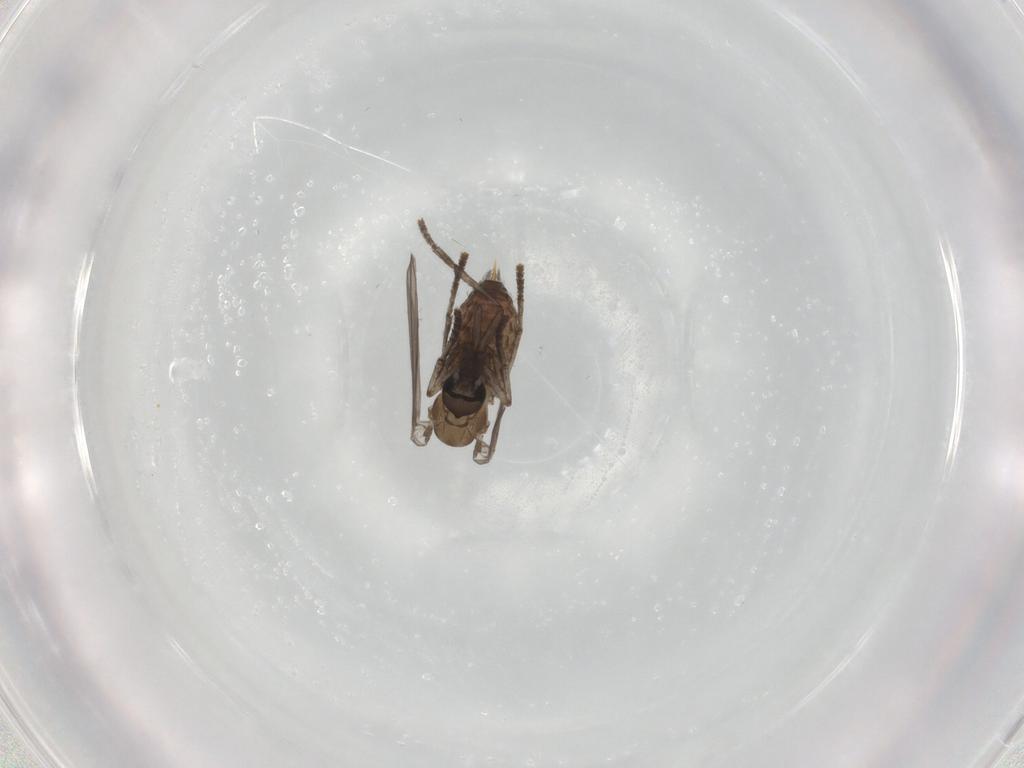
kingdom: Animalia
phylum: Arthropoda
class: Insecta
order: Diptera
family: Psychodidae
